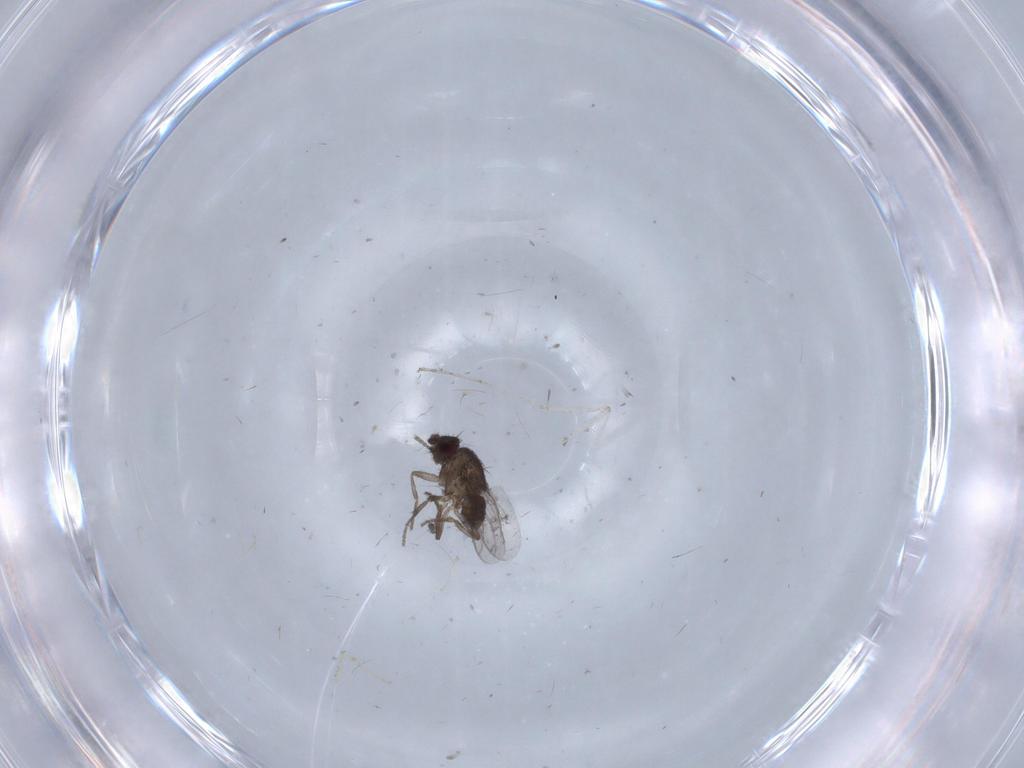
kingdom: Animalia
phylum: Arthropoda
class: Insecta
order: Diptera
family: Sphaeroceridae
